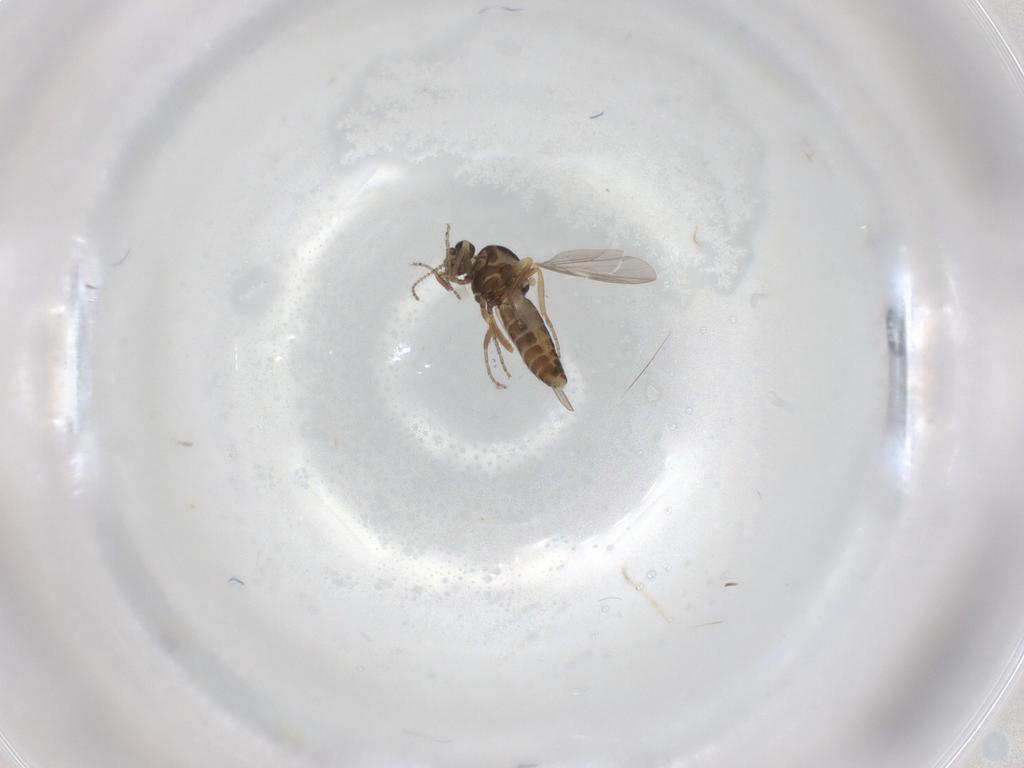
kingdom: Animalia
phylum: Arthropoda
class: Insecta
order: Diptera
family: Ceratopogonidae
